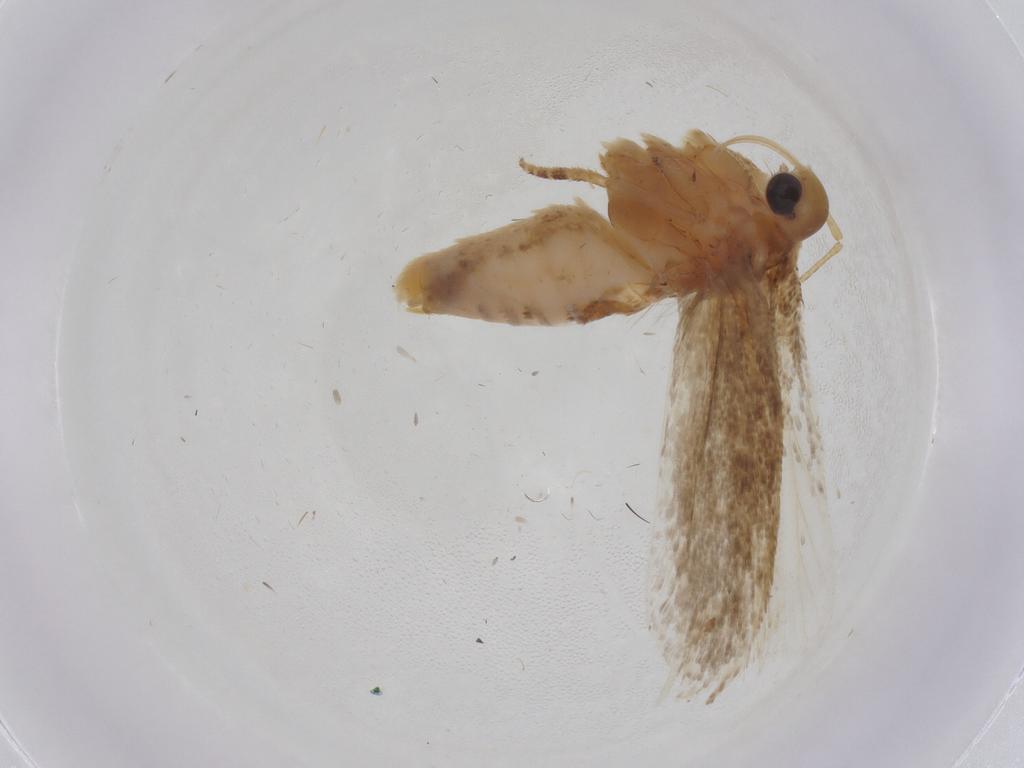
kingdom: Animalia
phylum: Arthropoda
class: Insecta
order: Lepidoptera
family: Gelechiidae
